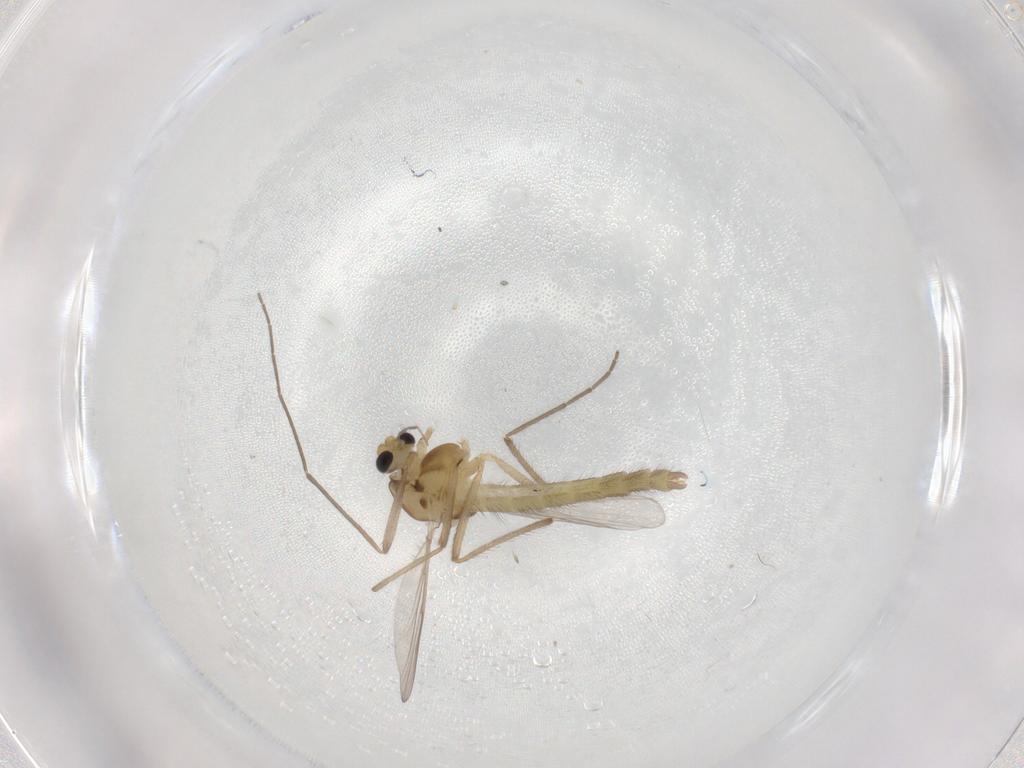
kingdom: Animalia
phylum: Arthropoda
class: Insecta
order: Diptera
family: Chironomidae
